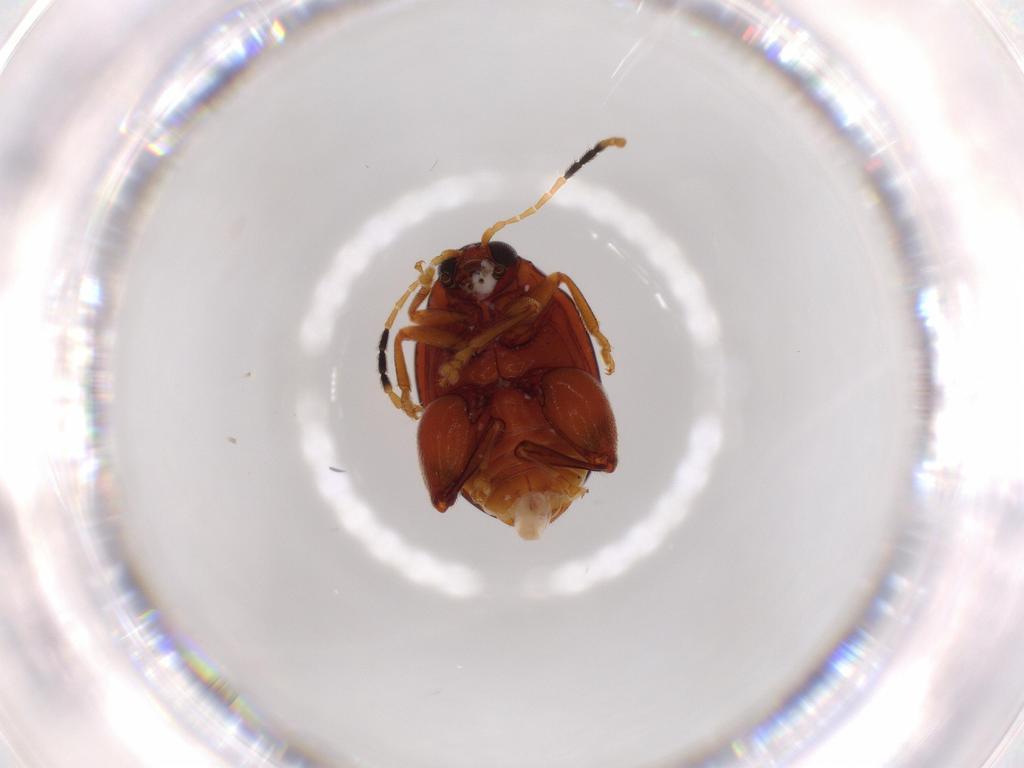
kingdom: Animalia
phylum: Arthropoda
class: Insecta
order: Coleoptera
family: Chrysomelidae
